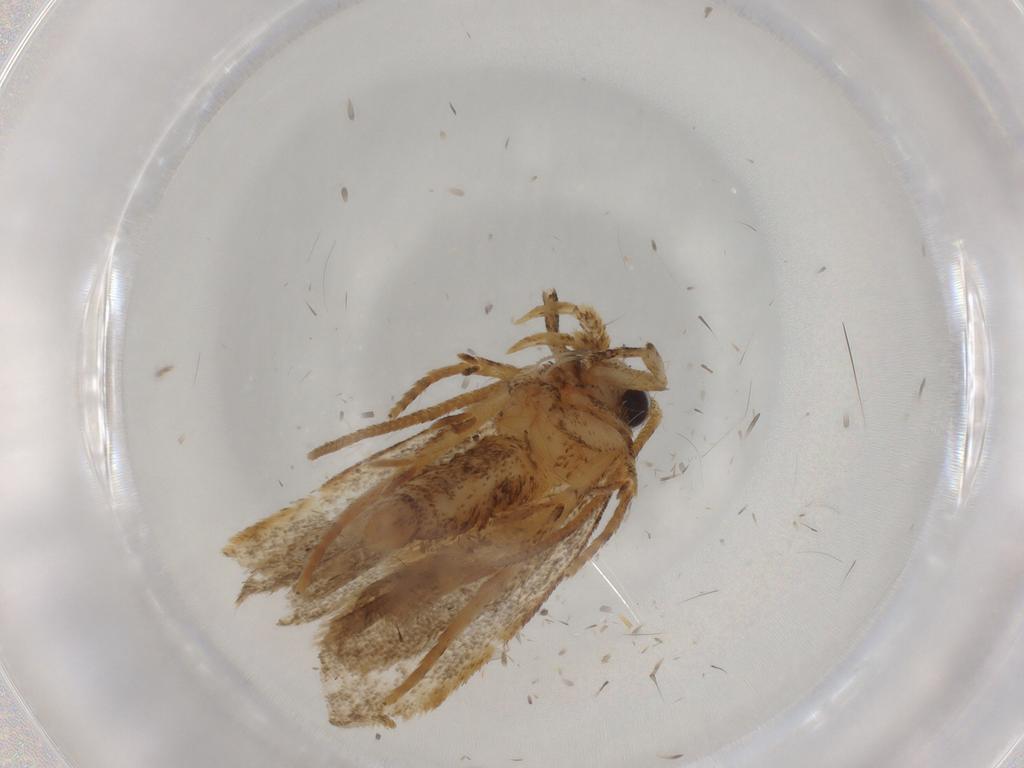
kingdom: Animalia
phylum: Arthropoda
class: Insecta
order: Lepidoptera
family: Autostichidae
